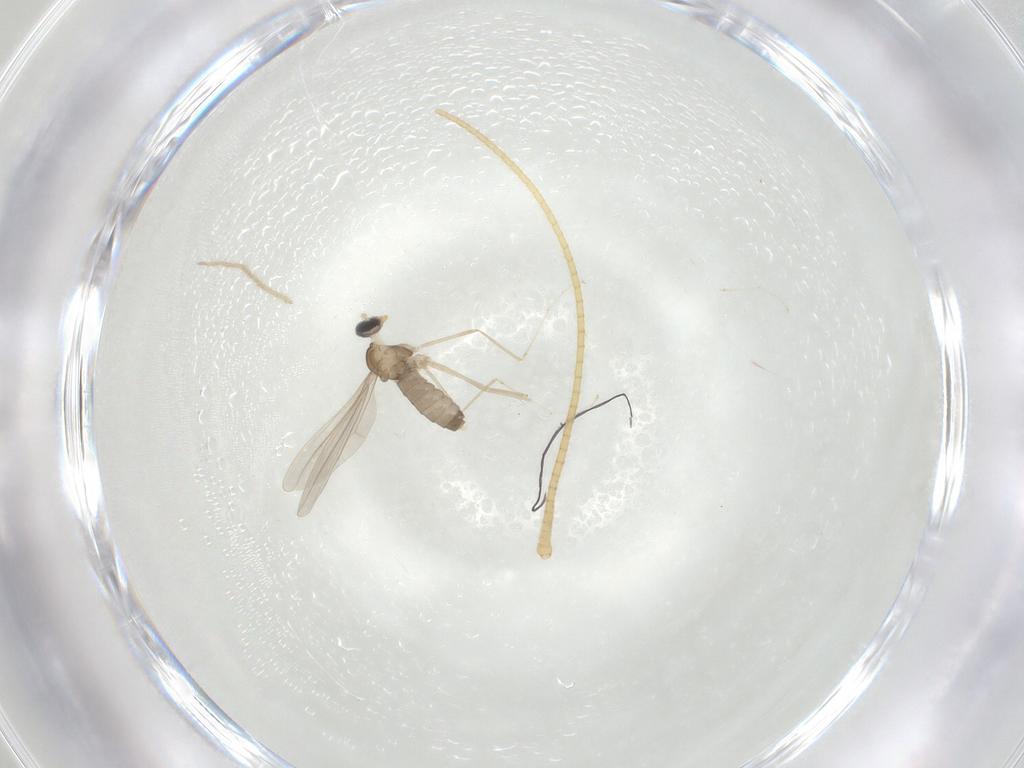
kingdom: Animalia
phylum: Arthropoda
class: Insecta
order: Diptera
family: Cecidomyiidae
